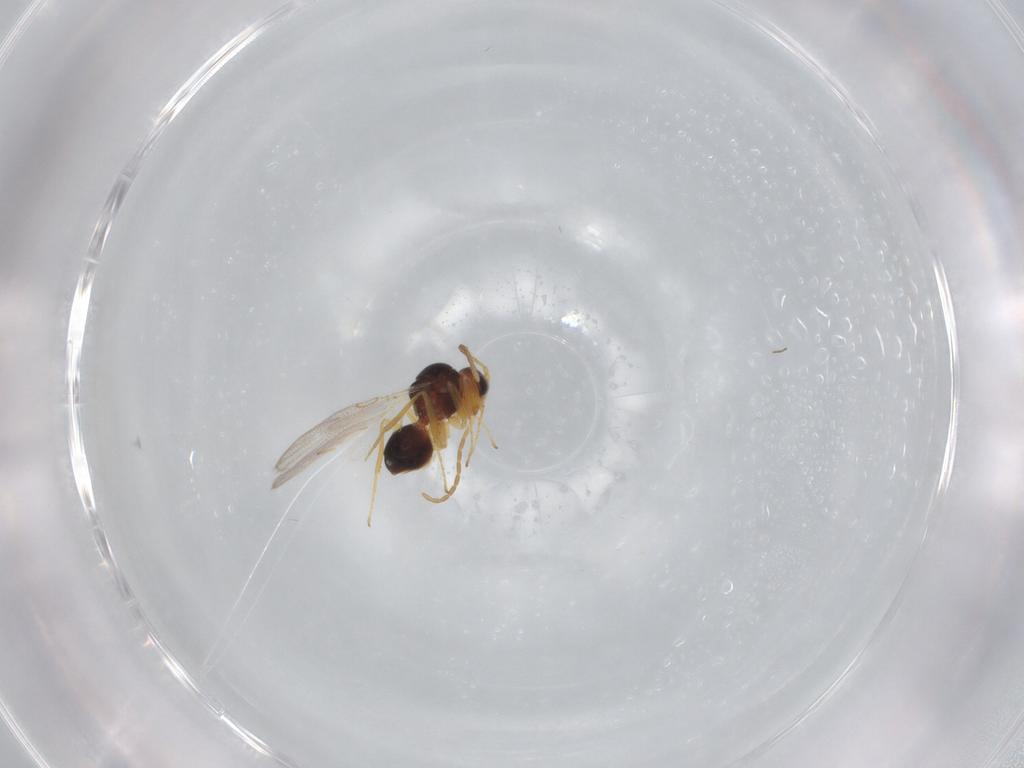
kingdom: Animalia
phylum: Arthropoda
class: Insecta
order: Hymenoptera
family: Figitidae
